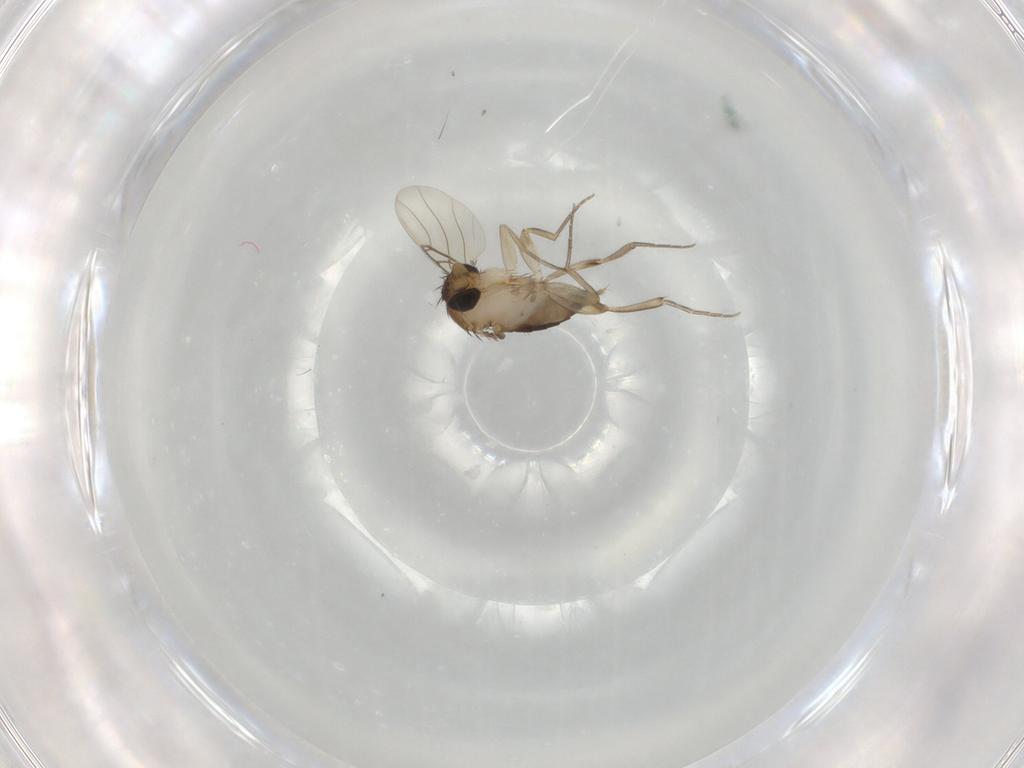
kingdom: Animalia
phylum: Arthropoda
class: Insecta
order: Diptera
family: Phoridae
